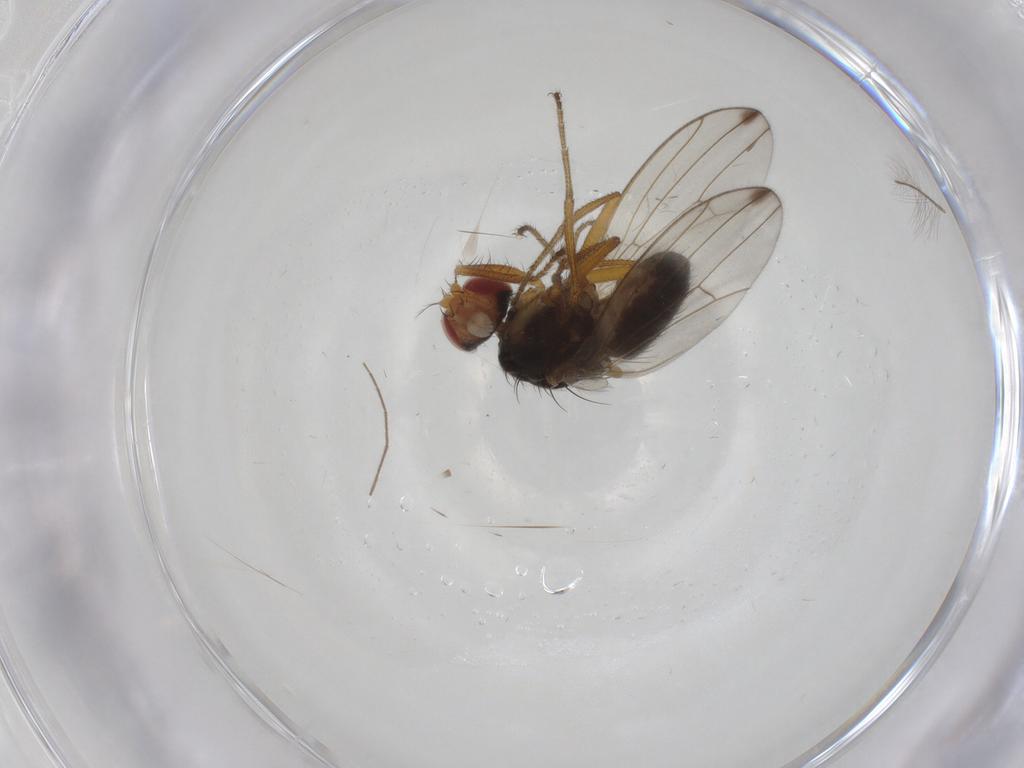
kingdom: Animalia
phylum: Arthropoda
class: Insecta
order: Diptera
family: Drosophilidae
